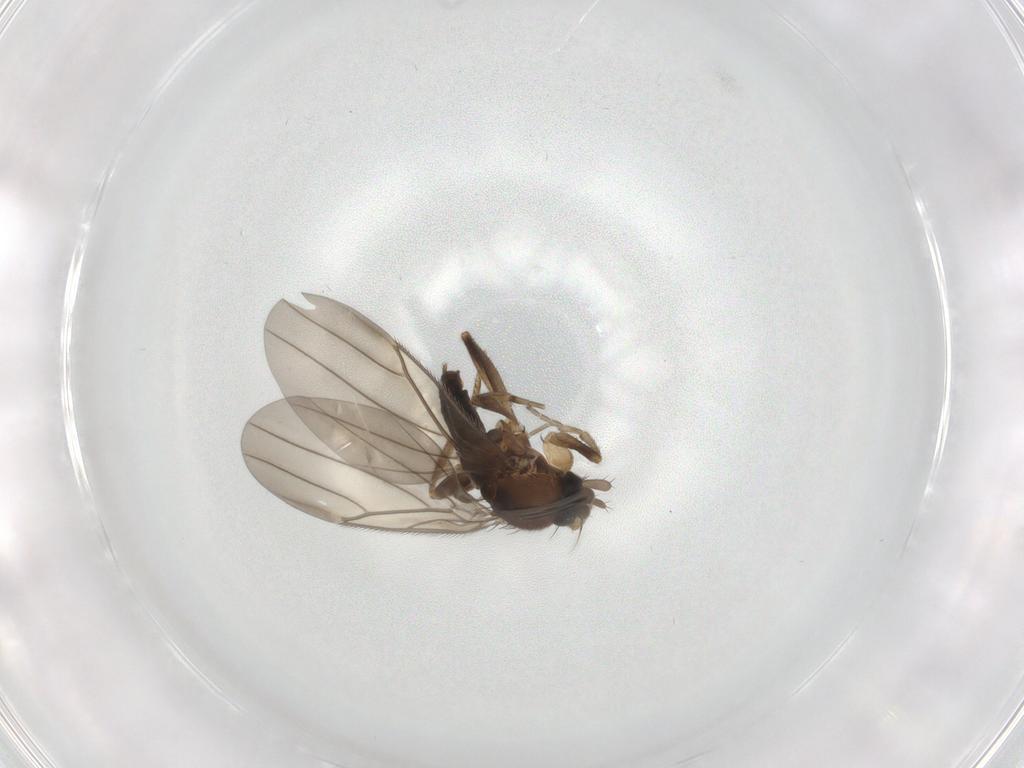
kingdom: Animalia
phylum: Arthropoda
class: Insecta
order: Diptera
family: Phoridae
